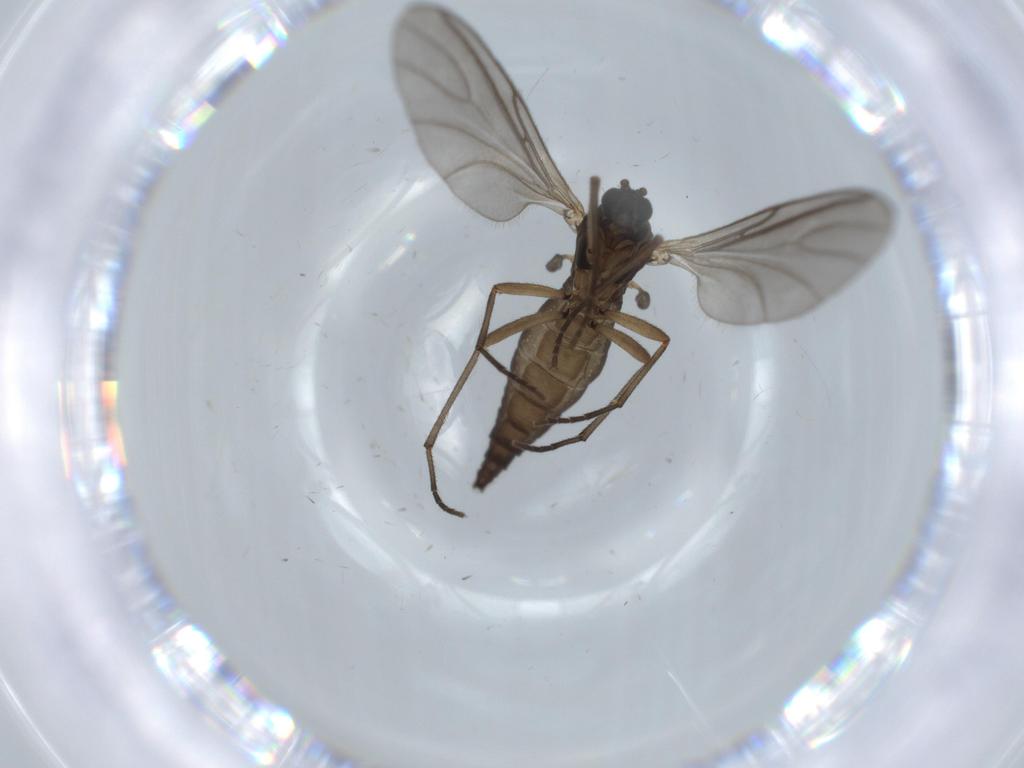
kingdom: Animalia
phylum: Arthropoda
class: Insecta
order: Diptera
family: Sciaridae
